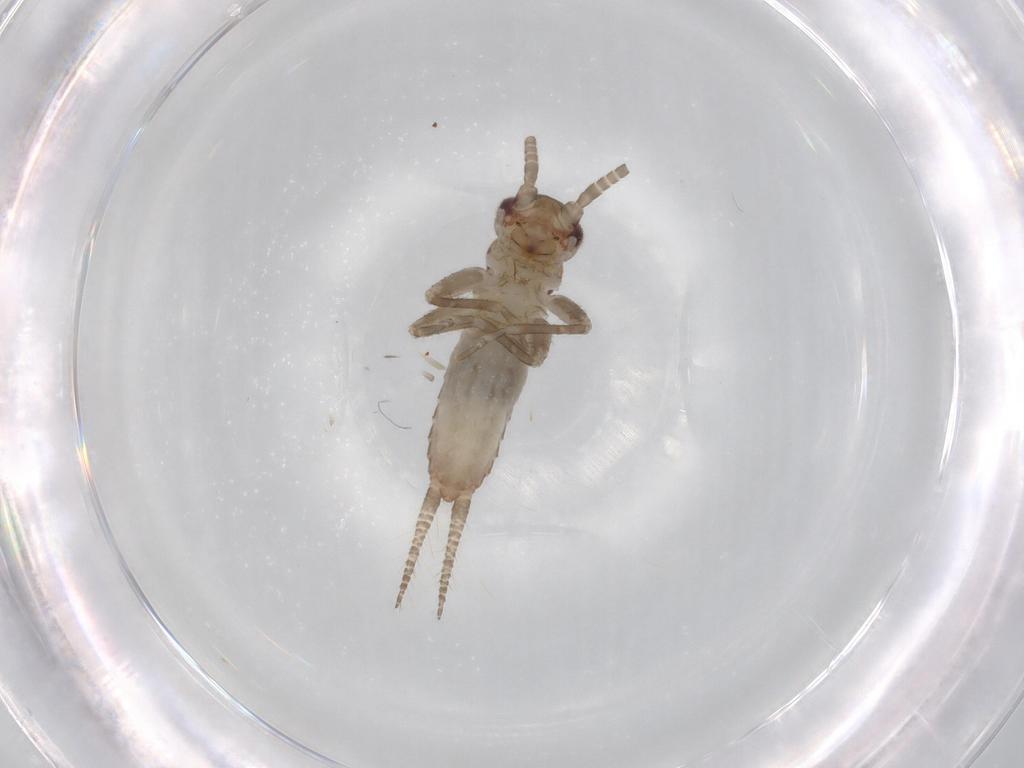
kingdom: Animalia
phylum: Arthropoda
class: Insecta
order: Orthoptera
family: Gryllidae
